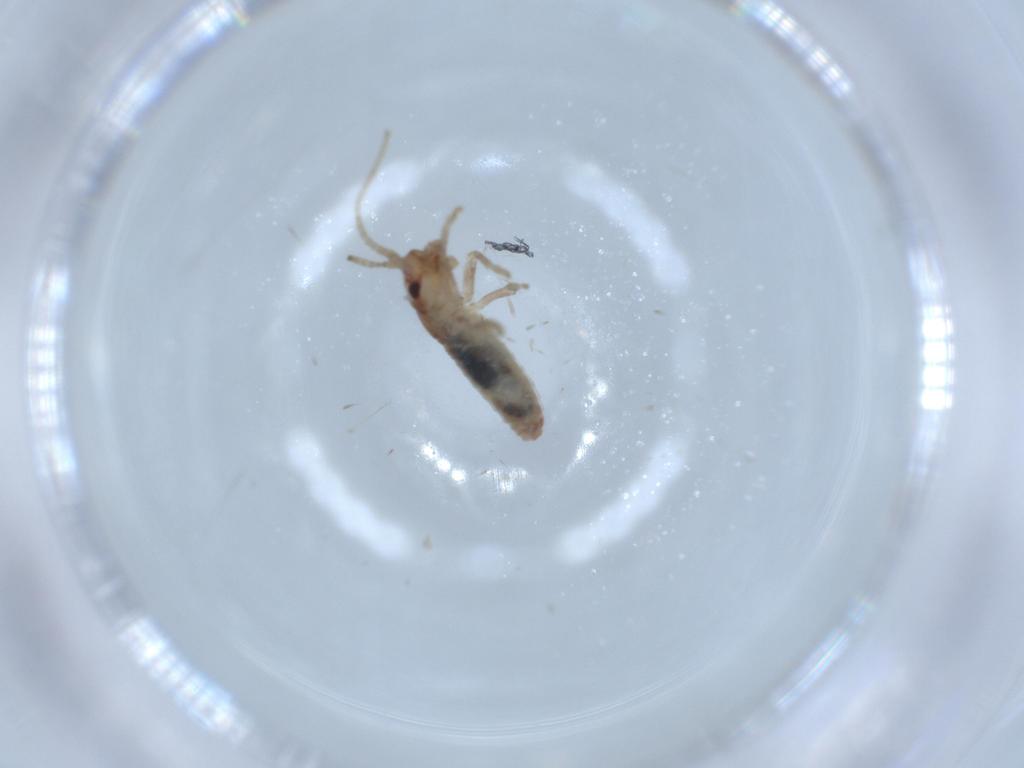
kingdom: Animalia
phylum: Arthropoda
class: Insecta
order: Orthoptera
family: Mogoplistidae
